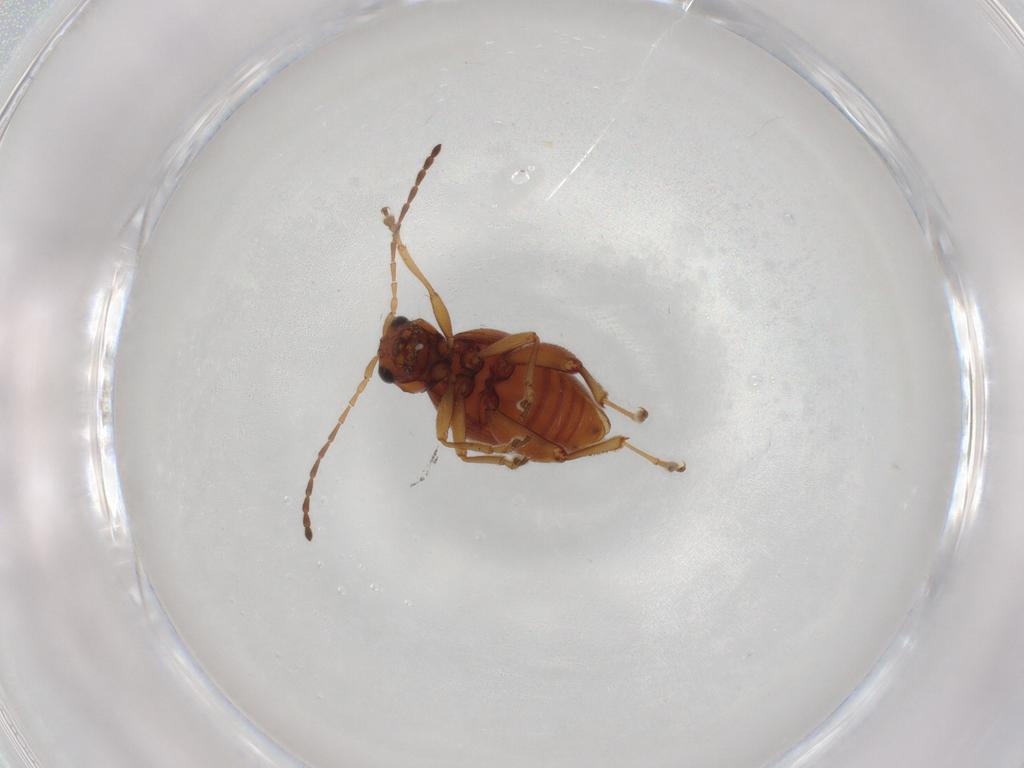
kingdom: Animalia
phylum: Arthropoda
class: Insecta
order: Coleoptera
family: Chrysomelidae
